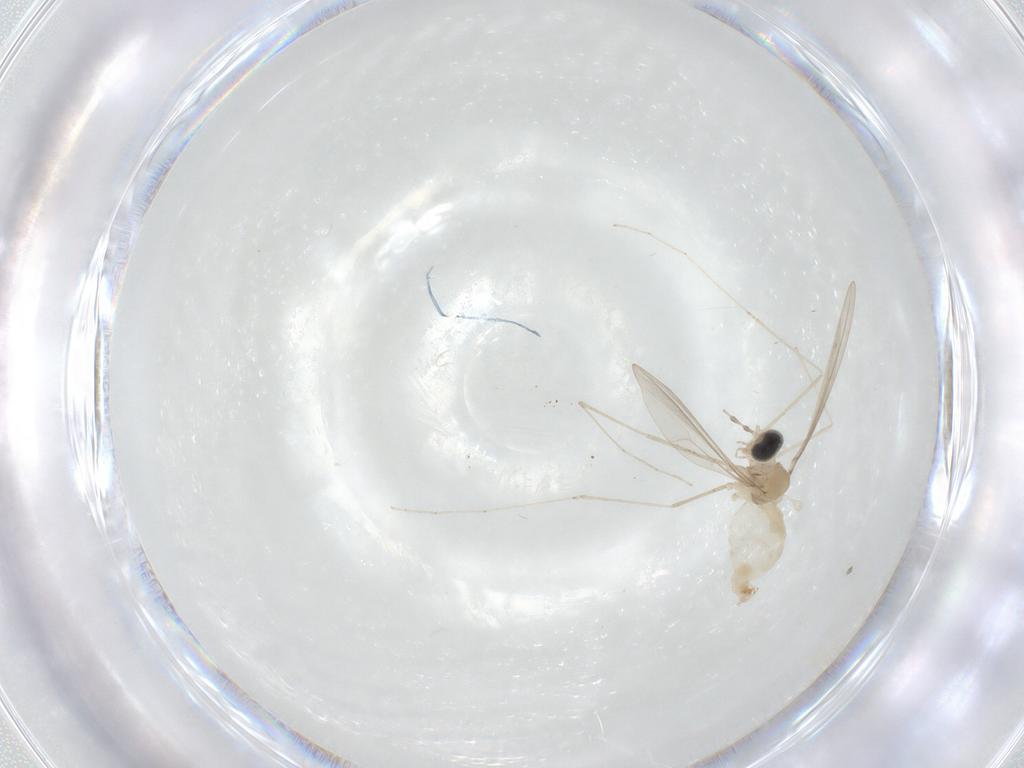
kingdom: Animalia
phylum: Arthropoda
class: Insecta
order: Diptera
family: Cecidomyiidae
